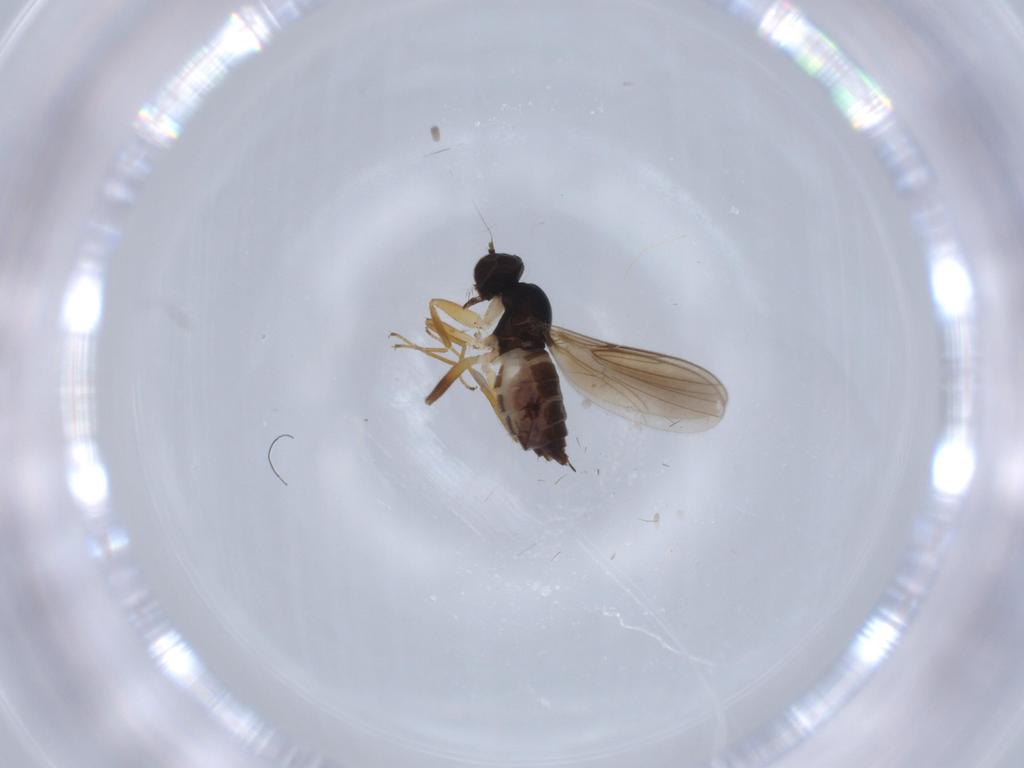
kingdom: Animalia
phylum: Arthropoda
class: Insecta
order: Diptera
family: Hybotidae
